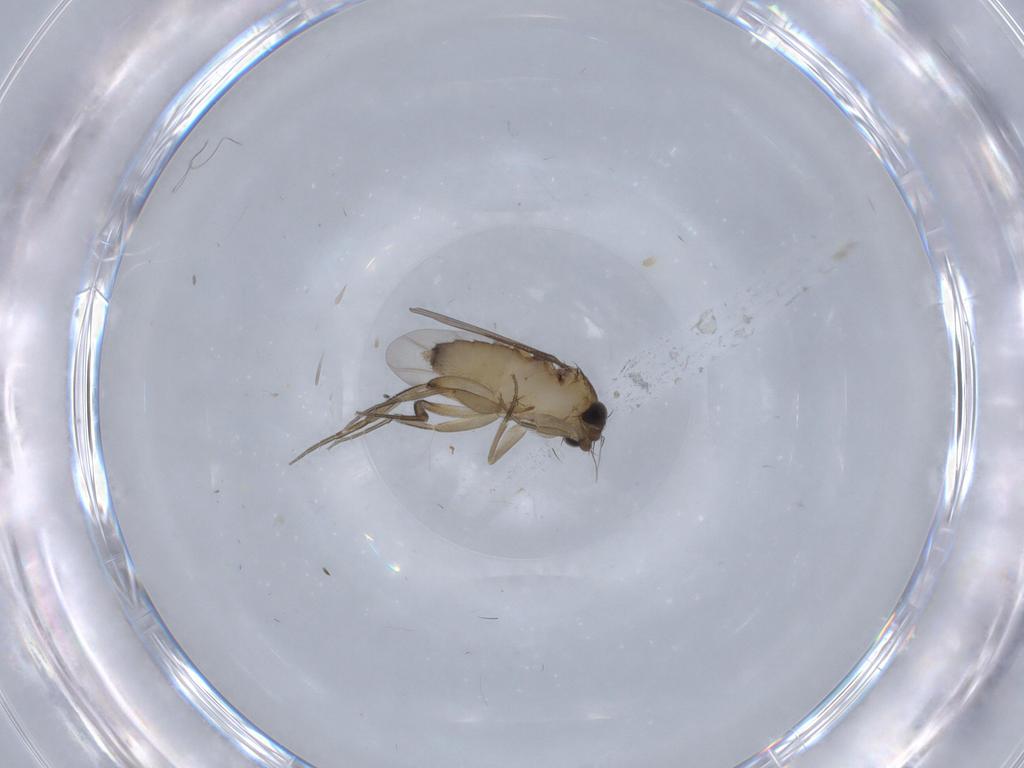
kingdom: Animalia
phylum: Arthropoda
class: Insecta
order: Diptera
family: Phoridae
